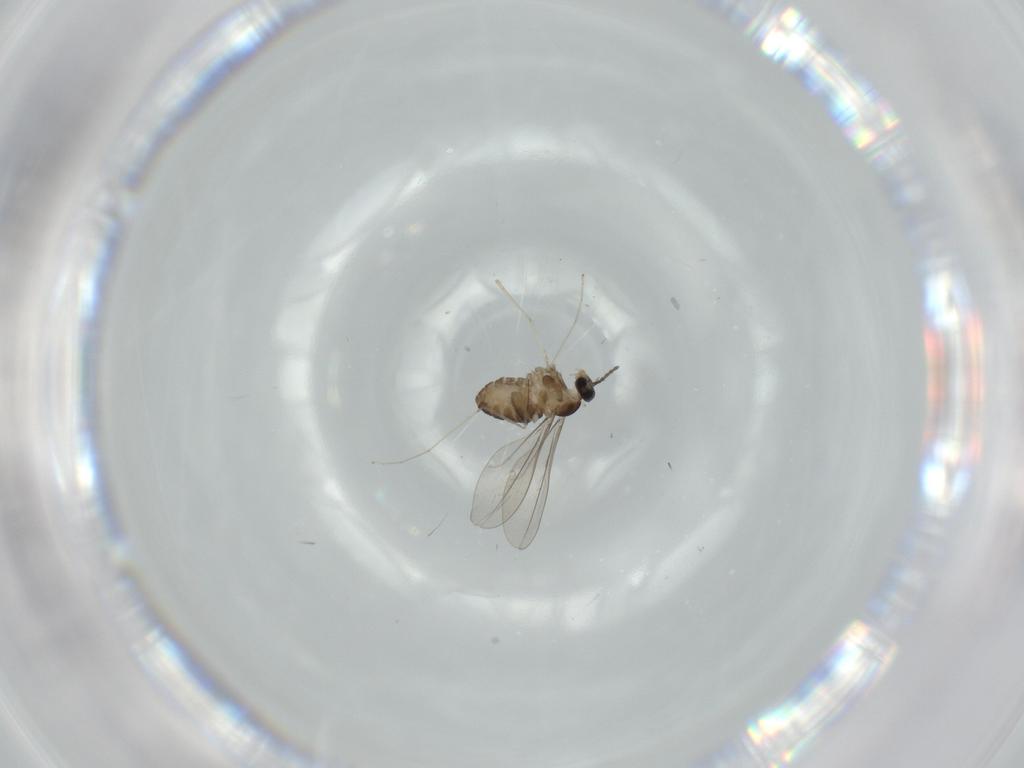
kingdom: Animalia
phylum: Arthropoda
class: Insecta
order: Diptera
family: Cecidomyiidae
